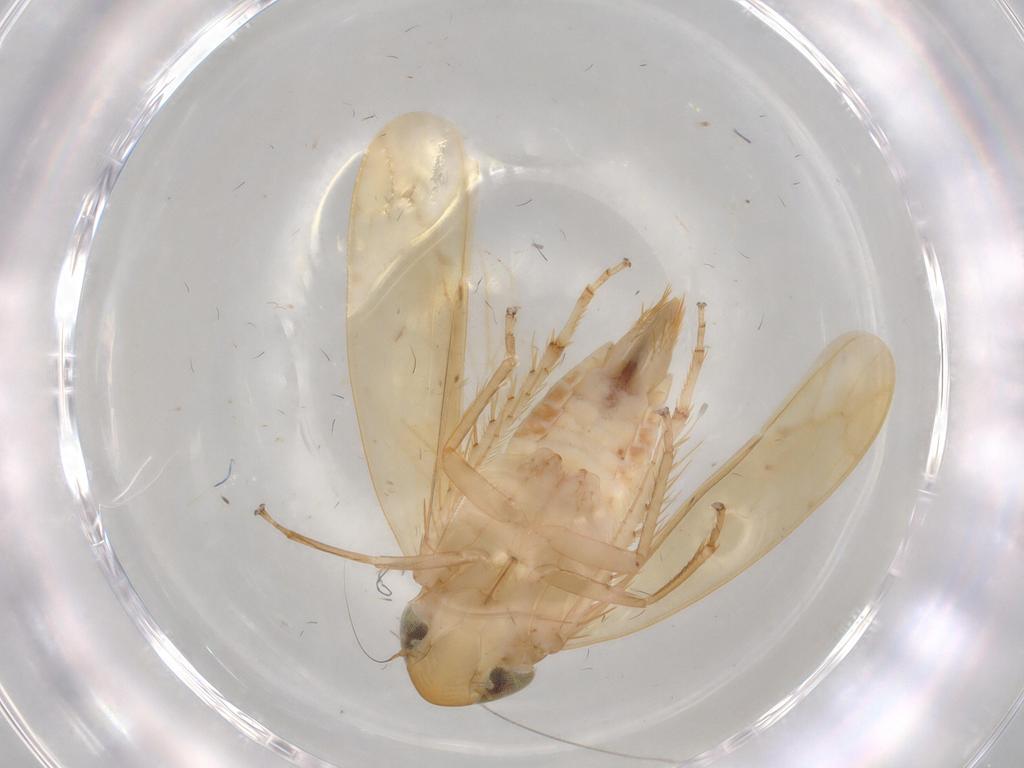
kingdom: Animalia
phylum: Arthropoda
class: Insecta
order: Hemiptera
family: Cicadellidae
